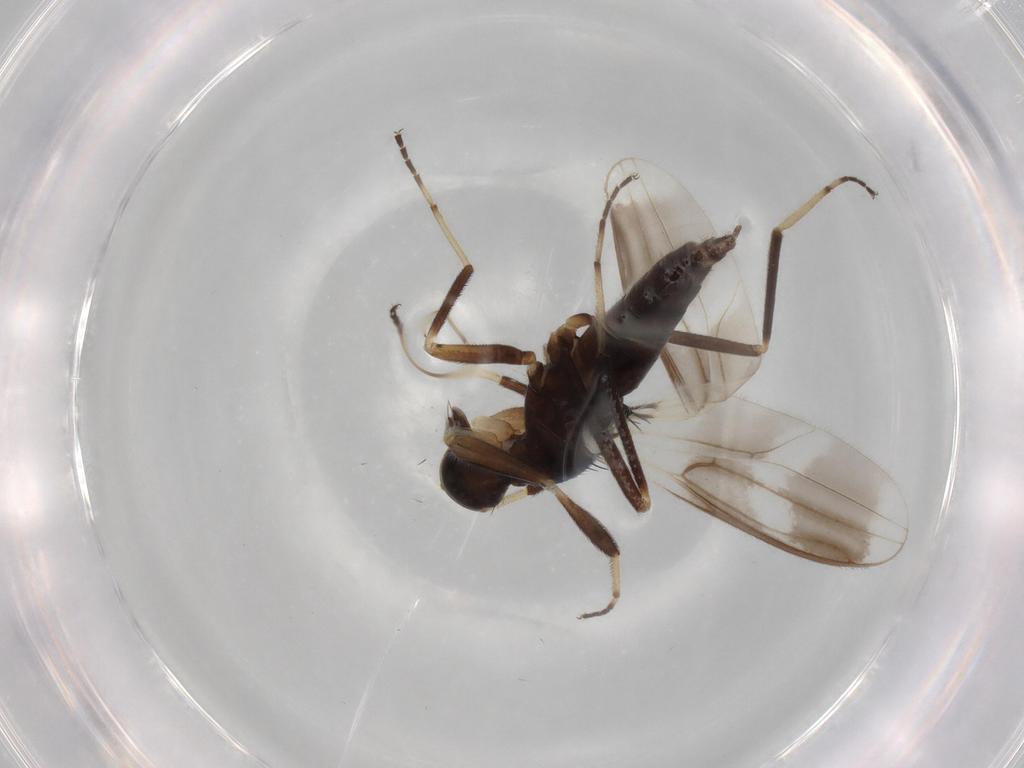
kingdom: Animalia
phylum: Arthropoda
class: Insecta
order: Diptera
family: Hybotidae
